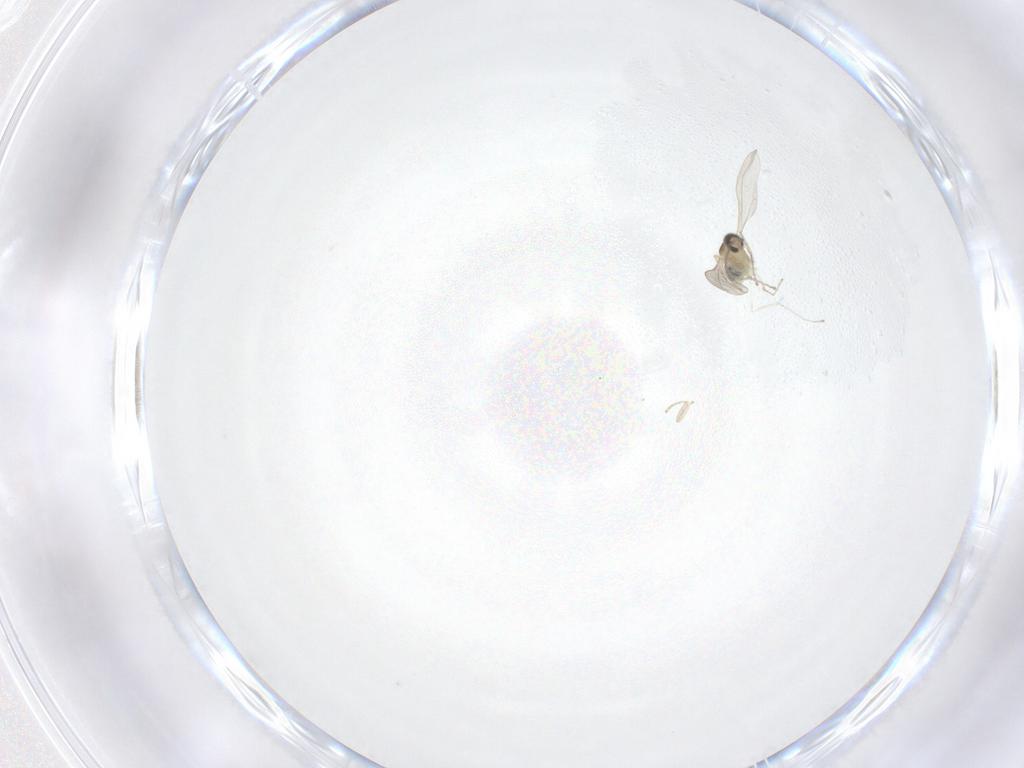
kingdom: Animalia
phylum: Arthropoda
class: Insecta
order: Diptera
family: Cecidomyiidae
